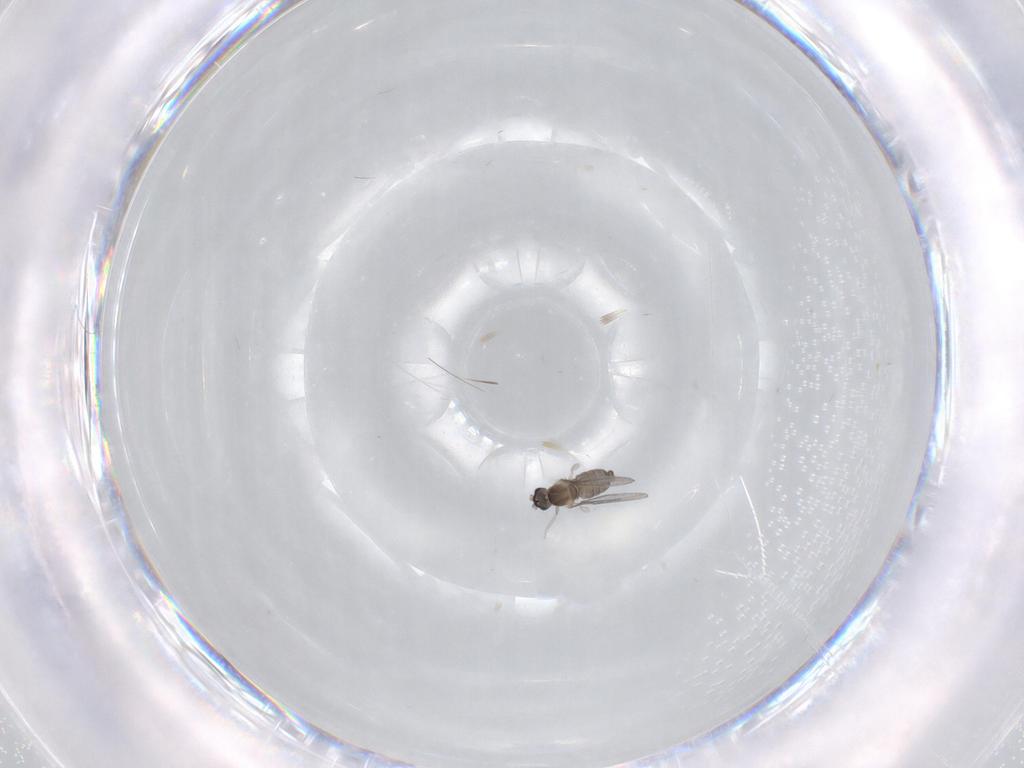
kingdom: Animalia
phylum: Arthropoda
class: Insecta
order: Diptera
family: Cecidomyiidae
